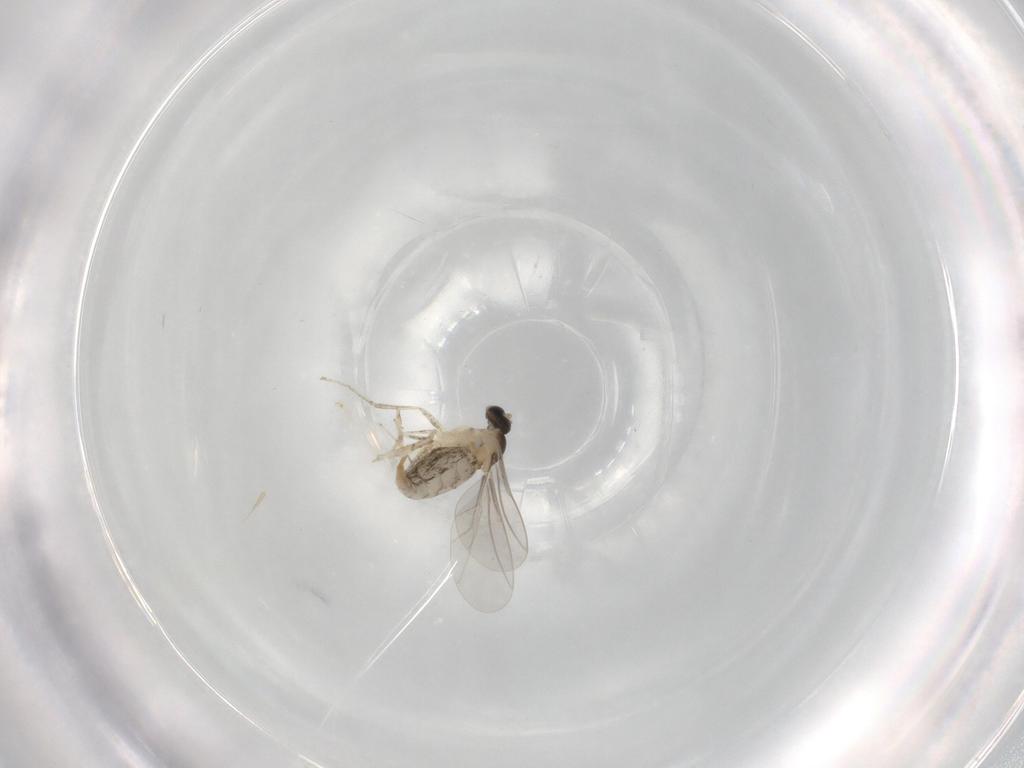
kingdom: Animalia
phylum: Arthropoda
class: Insecta
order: Diptera
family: Cecidomyiidae
